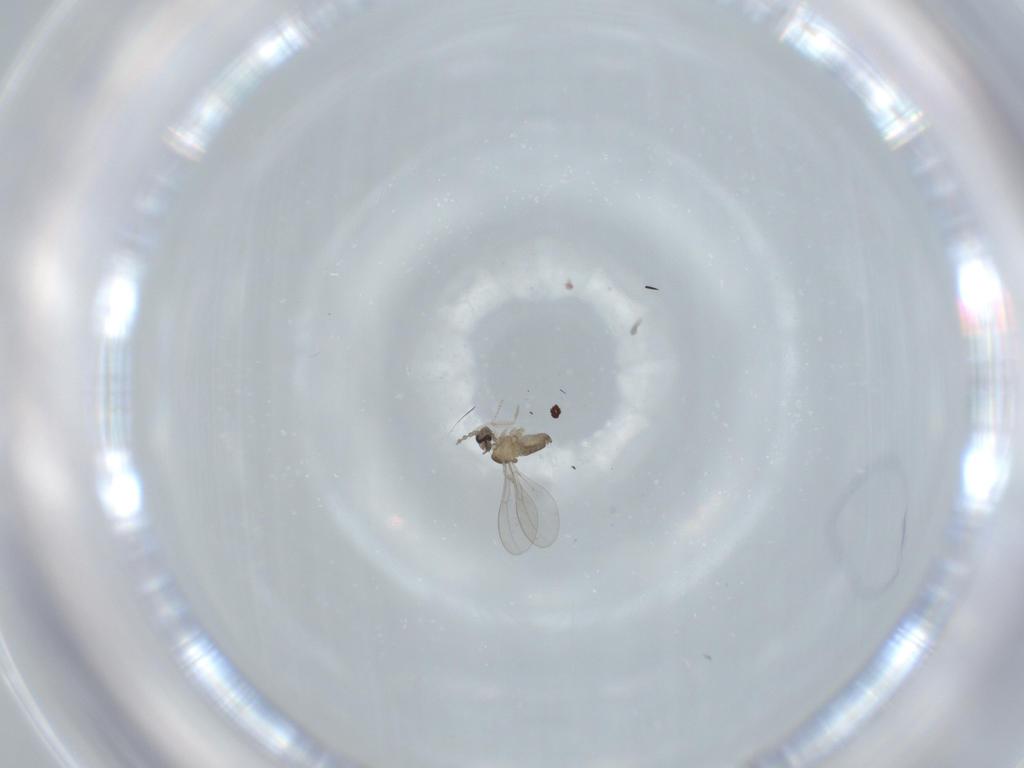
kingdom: Animalia
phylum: Arthropoda
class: Insecta
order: Diptera
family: Cecidomyiidae
